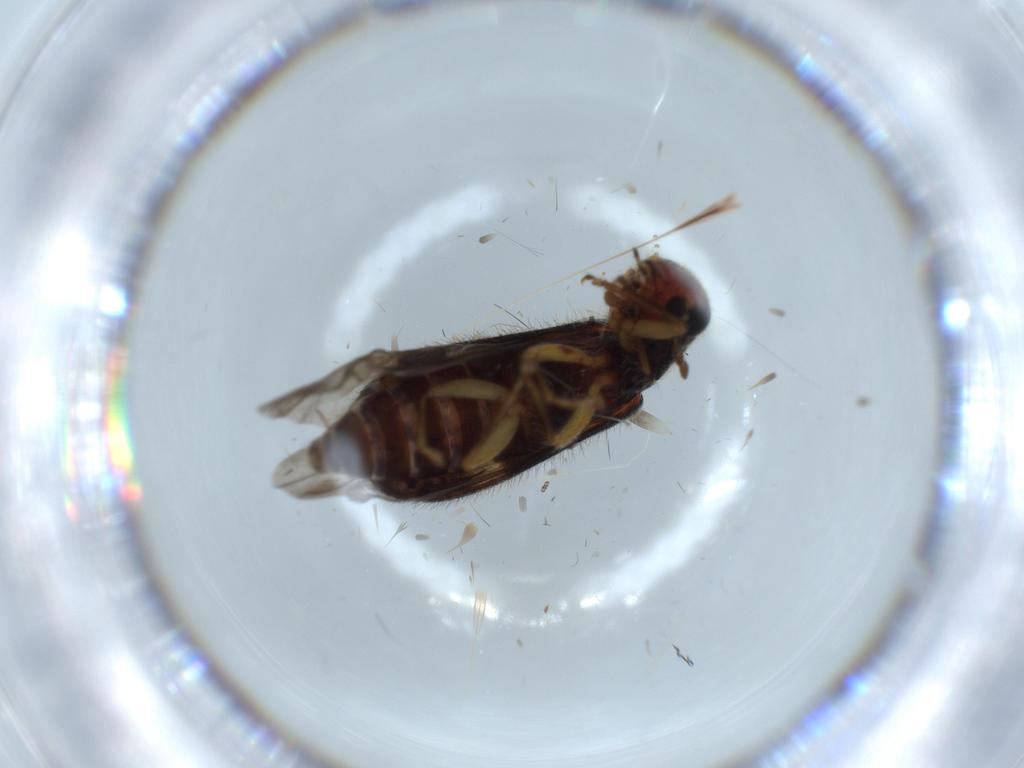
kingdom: Animalia
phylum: Arthropoda
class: Insecta
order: Coleoptera
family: Cleridae
